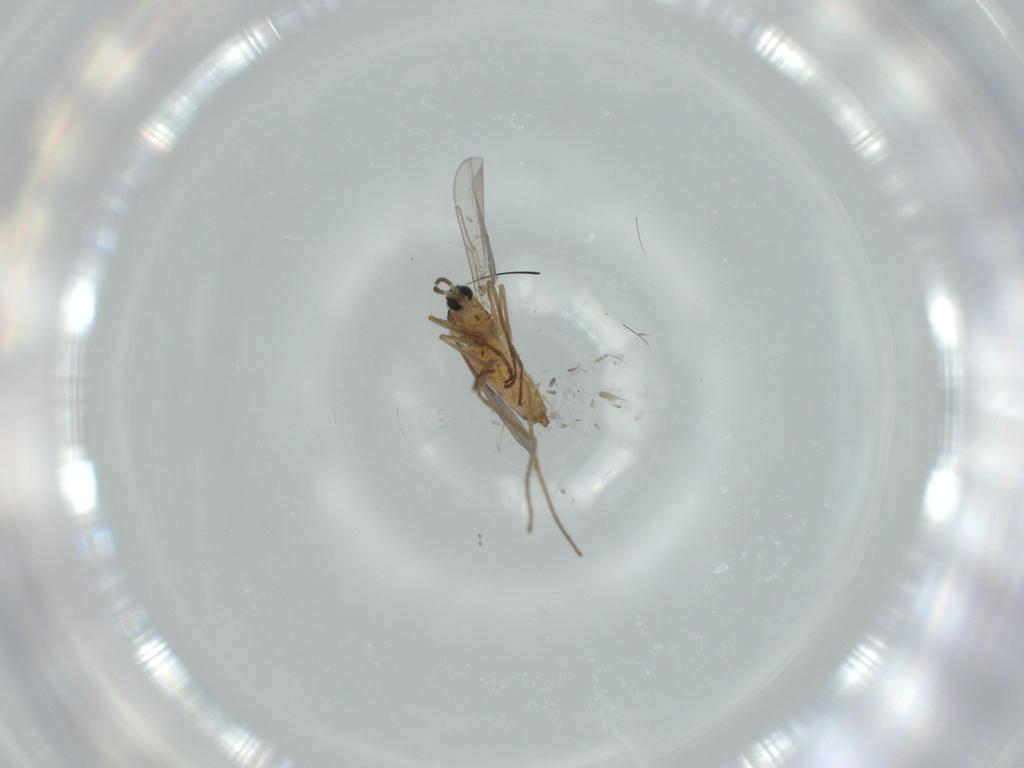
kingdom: Animalia
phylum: Arthropoda
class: Insecta
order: Diptera
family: Cecidomyiidae
